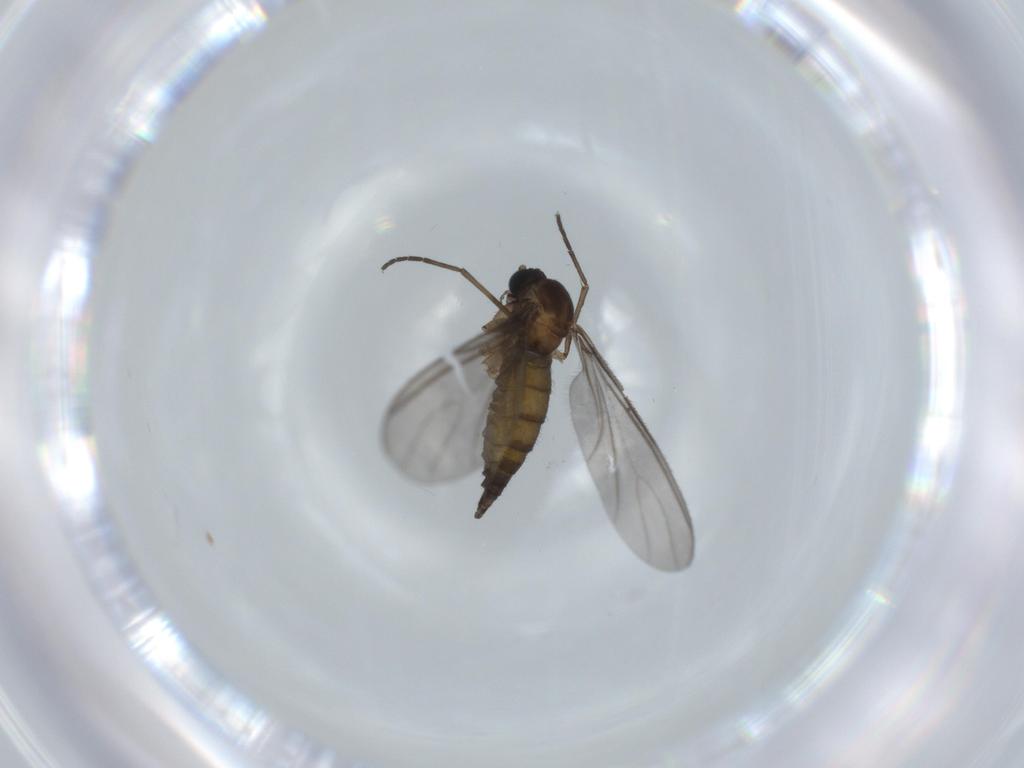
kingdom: Animalia
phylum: Arthropoda
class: Insecta
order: Diptera
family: Sciaridae
